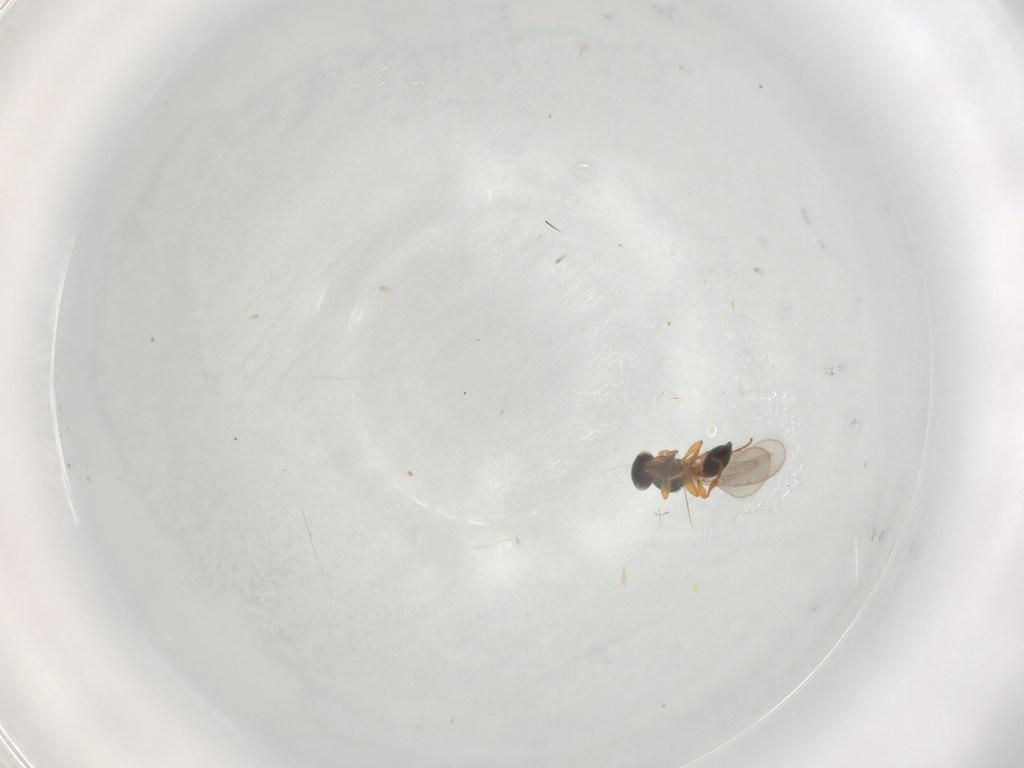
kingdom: Animalia
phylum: Arthropoda
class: Insecta
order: Hymenoptera
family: Platygastridae
